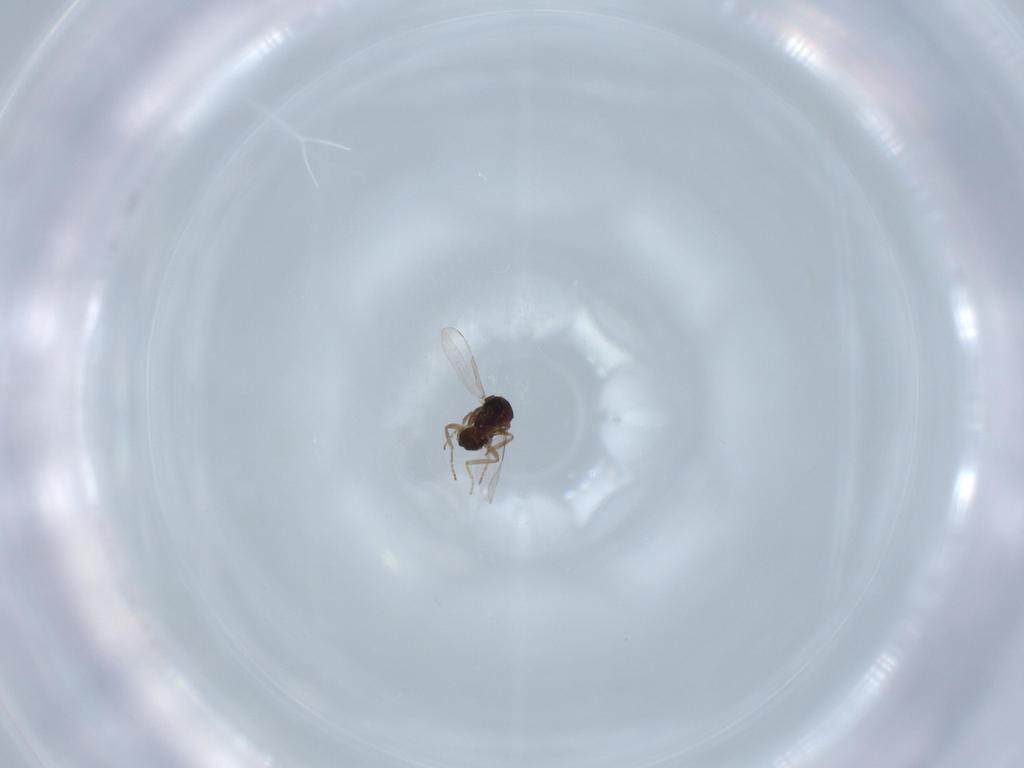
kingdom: Animalia
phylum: Arthropoda
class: Insecta
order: Diptera
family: Ceratopogonidae
